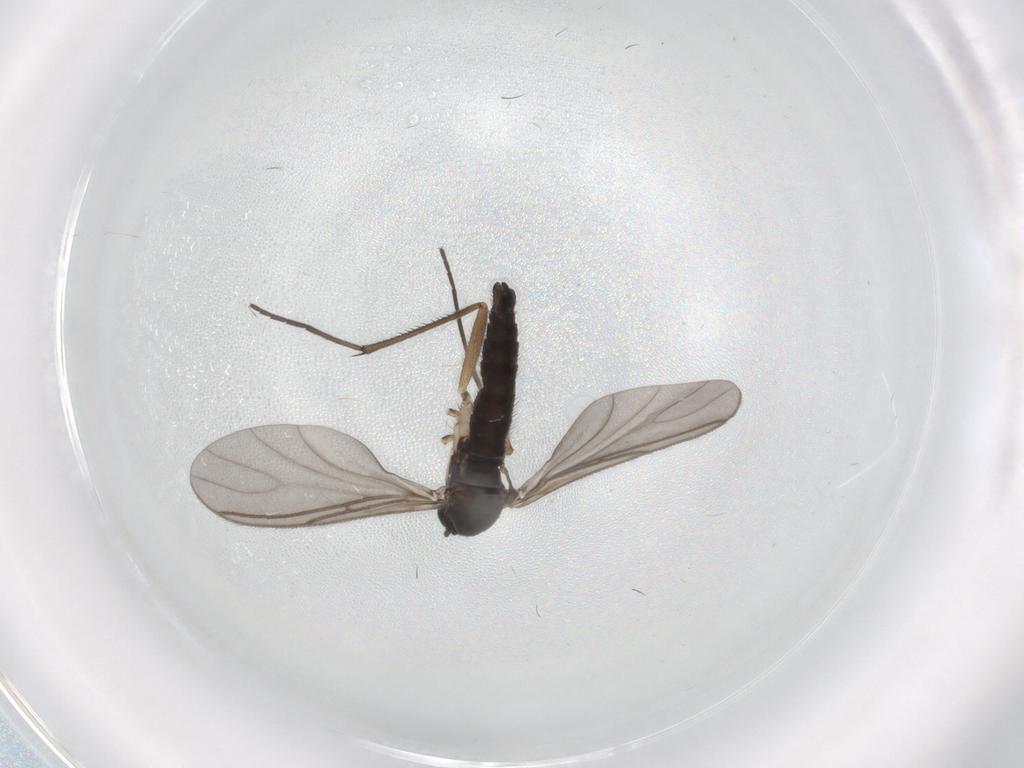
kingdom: Animalia
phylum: Arthropoda
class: Insecta
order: Diptera
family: Sciaridae
